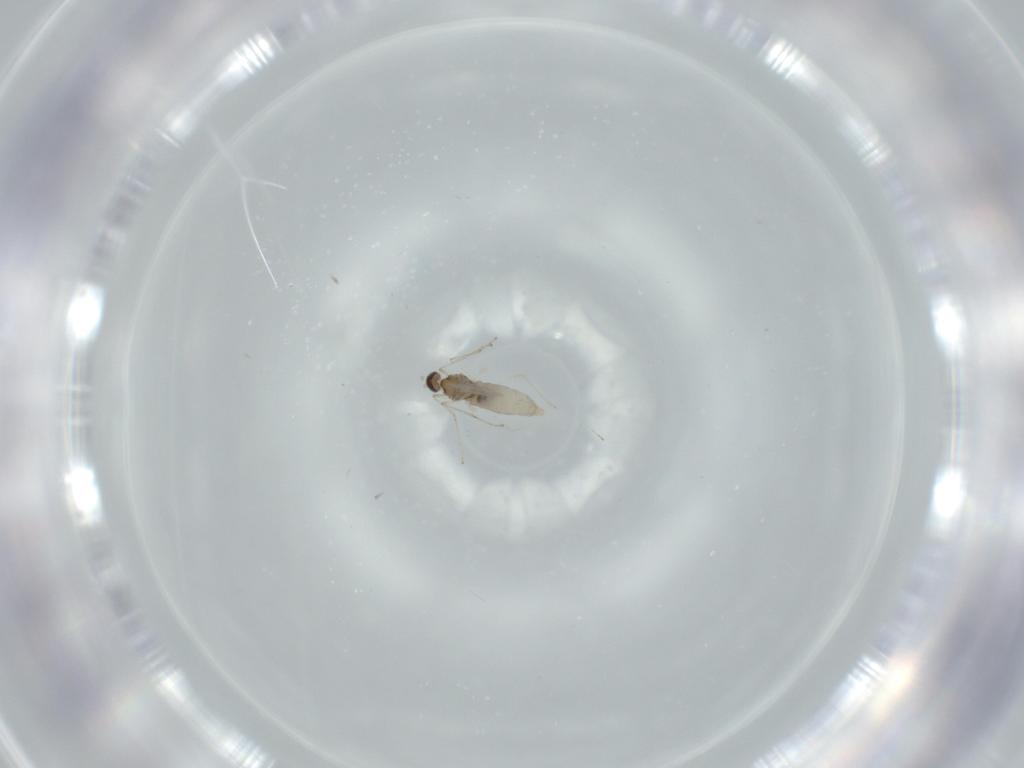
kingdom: Animalia
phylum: Arthropoda
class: Insecta
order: Diptera
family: Cecidomyiidae
